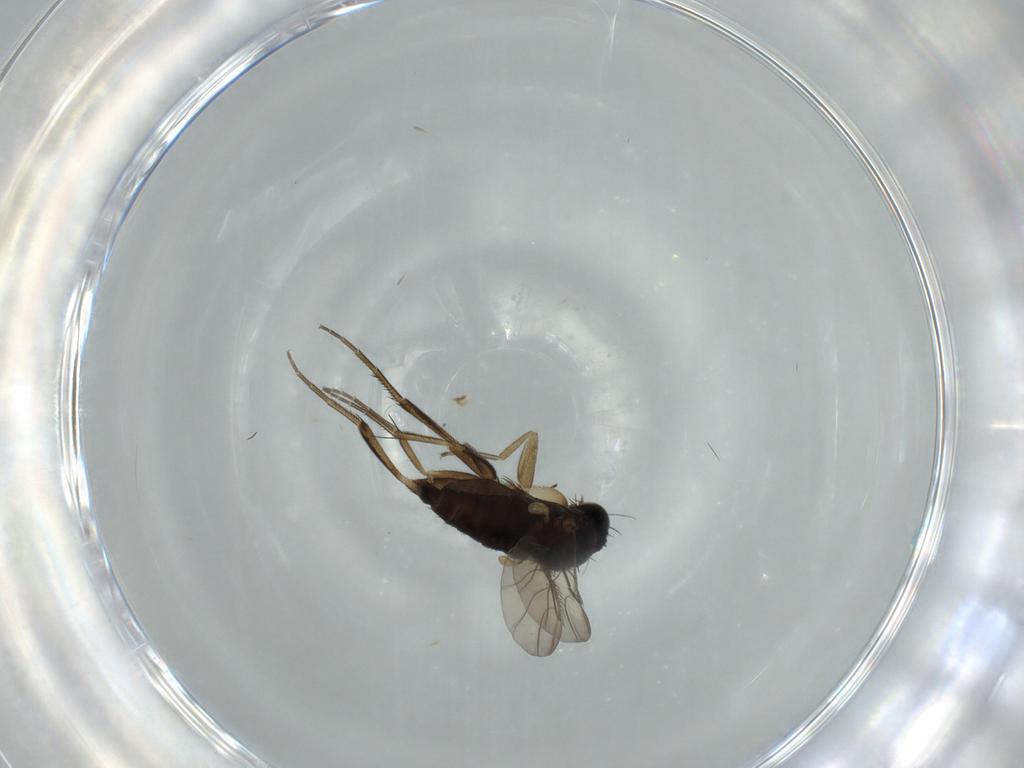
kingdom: Animalia
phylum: Arthropoda
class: Insecta
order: Diptera
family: Phoridae
